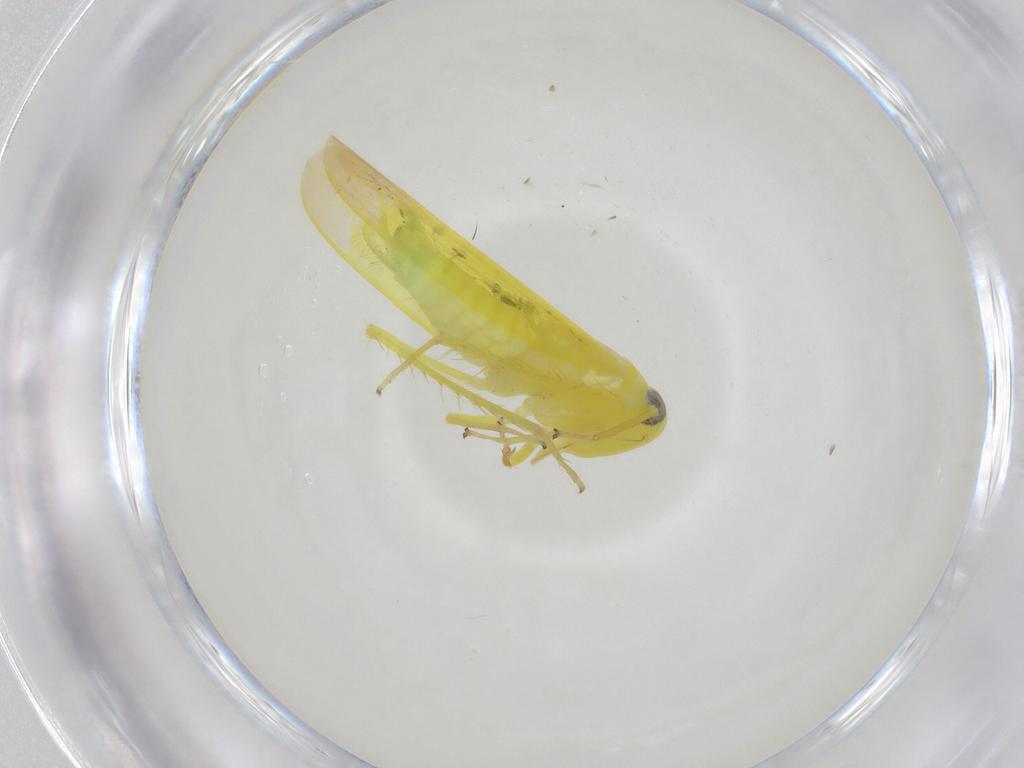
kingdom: Animalia
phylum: Arthropoda
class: Insecta
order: Hemiptera
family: Cicadellidae
